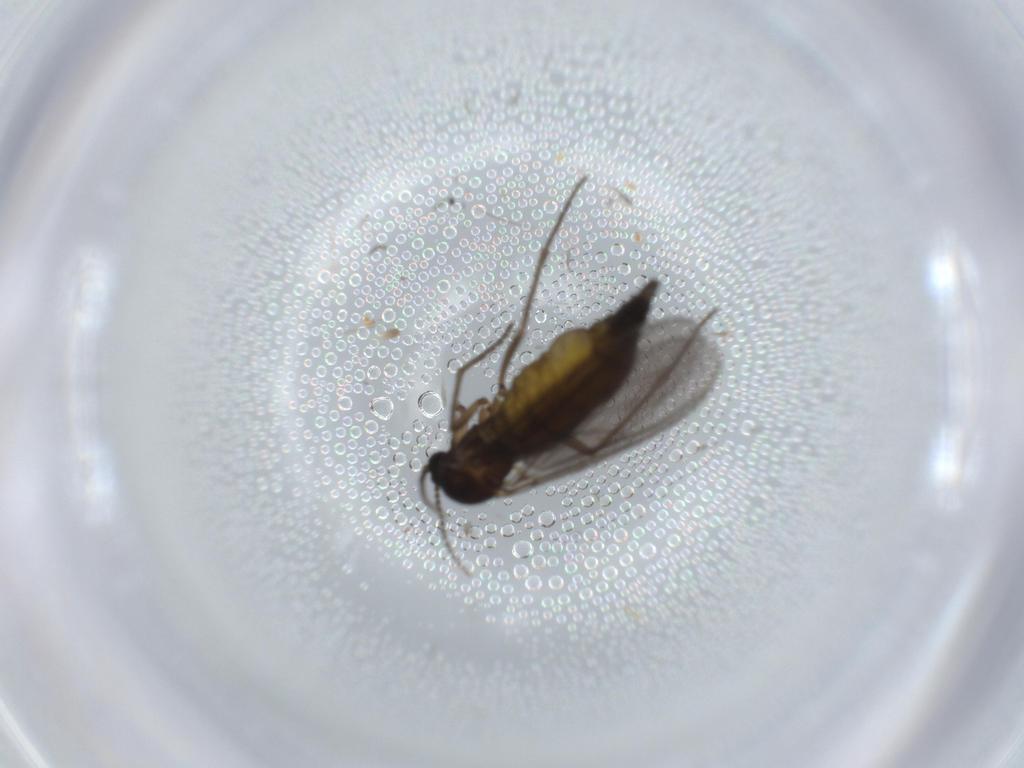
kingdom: Animalia
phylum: Arthropoda
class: Insecta
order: Diptera
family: Sciaridae
